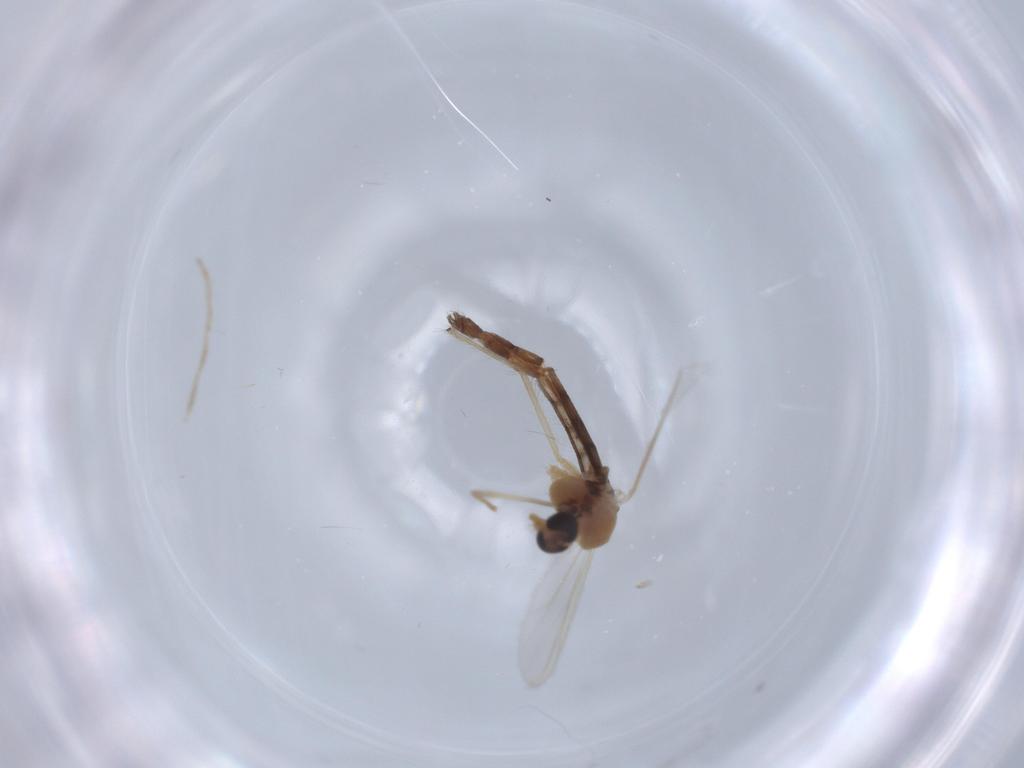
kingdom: Animalia
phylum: Arthropoda
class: Insecta
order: Diptera
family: Chironomidae
